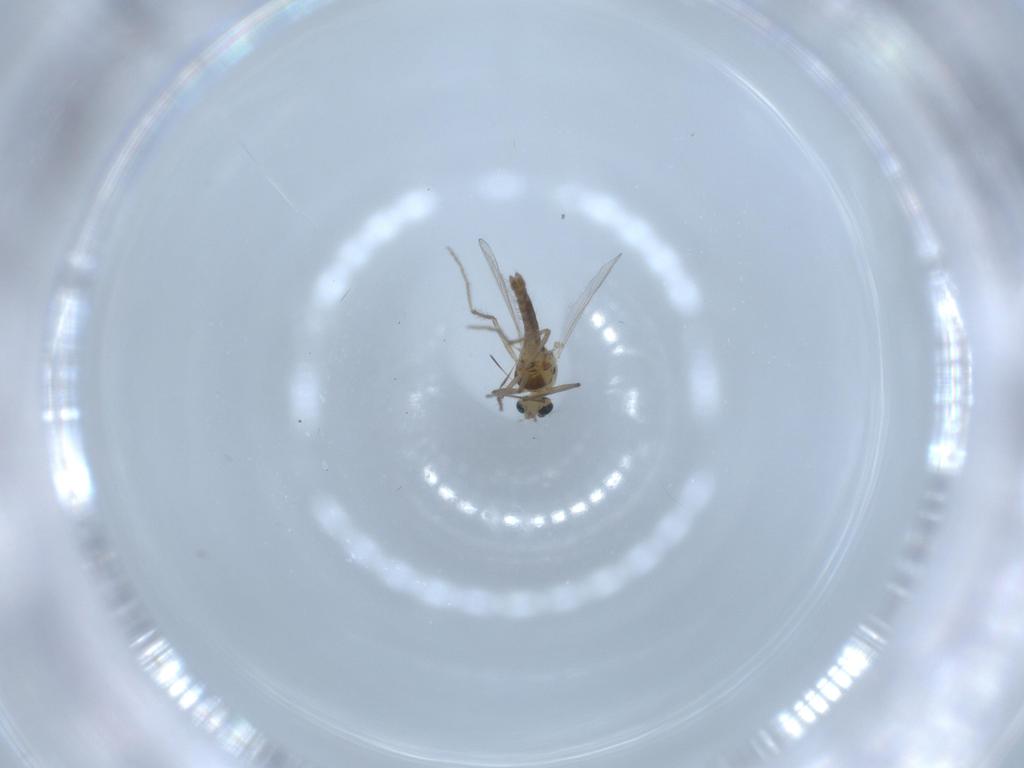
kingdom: Animalia
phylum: Arthropoda
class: Insecta
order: Diptera
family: Chironomidae
